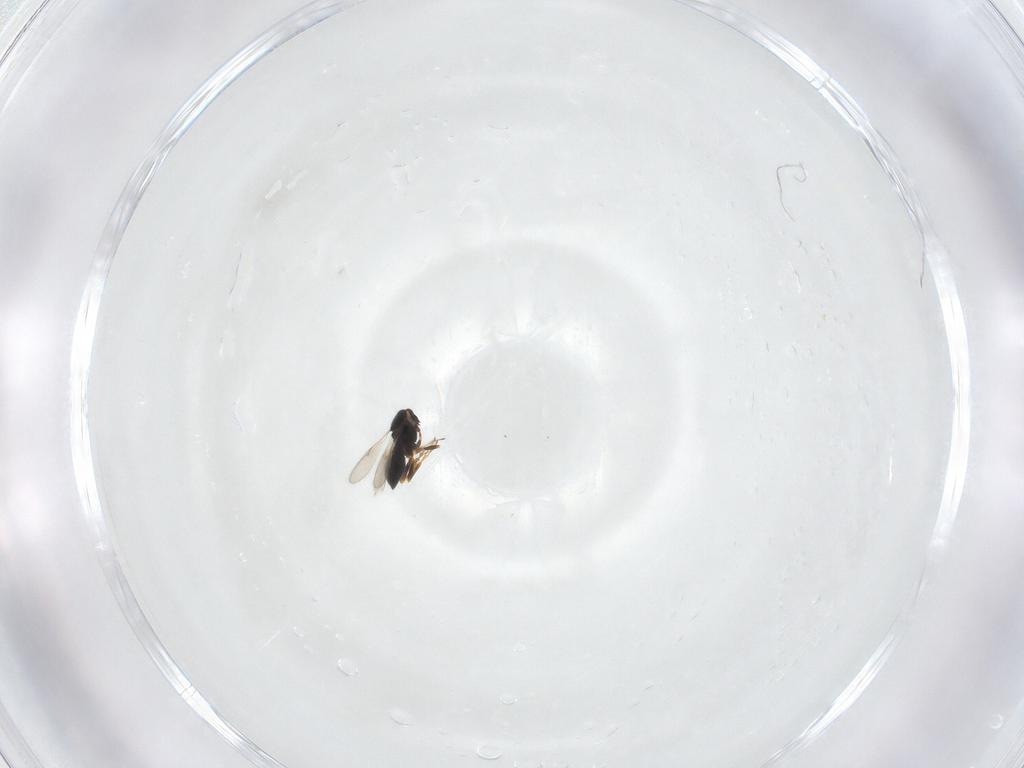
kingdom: Animalia
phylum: Arthropoda
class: Insecta
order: Hymenoptera
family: Scelionidae
